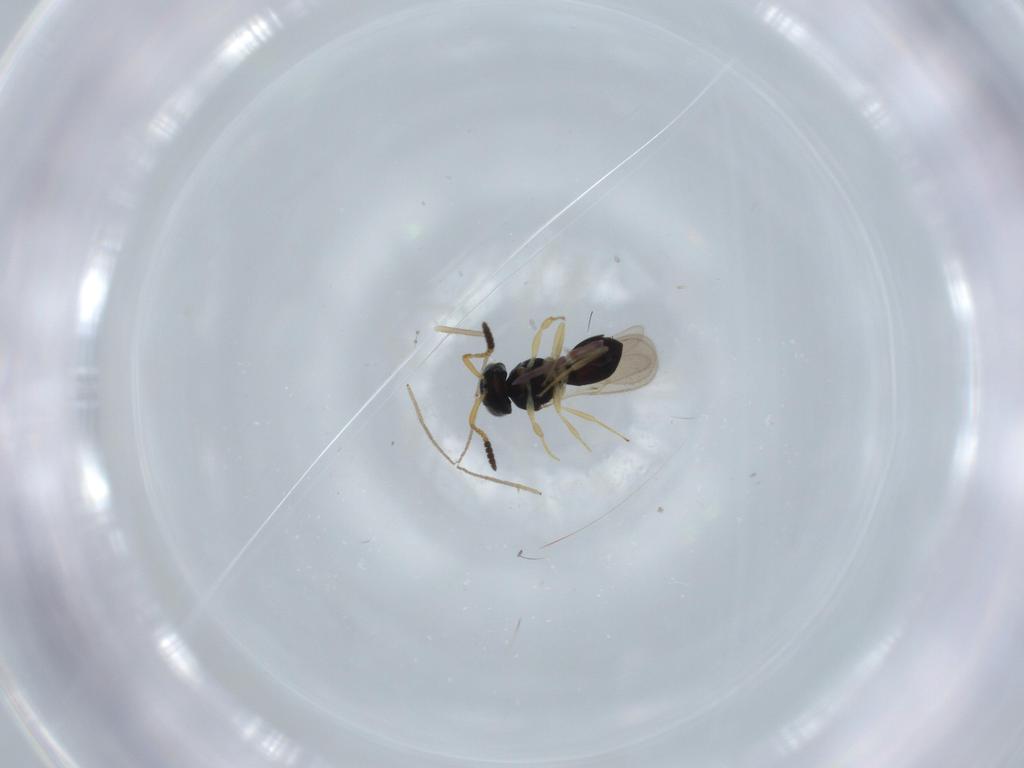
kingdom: Animalia
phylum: Arthropoda
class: Insecta
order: Hymenoptera
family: Scelionidae
